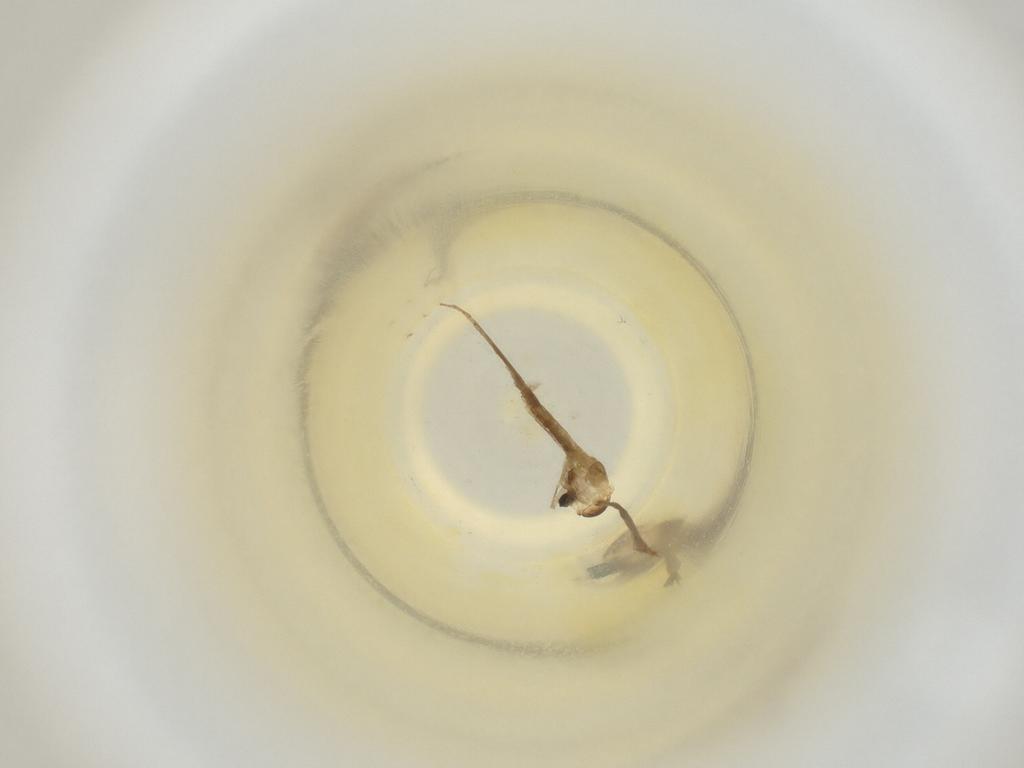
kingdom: Animalia
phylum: Arthropoda
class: Insecta
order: Diptera
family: Cecidomyiidae
